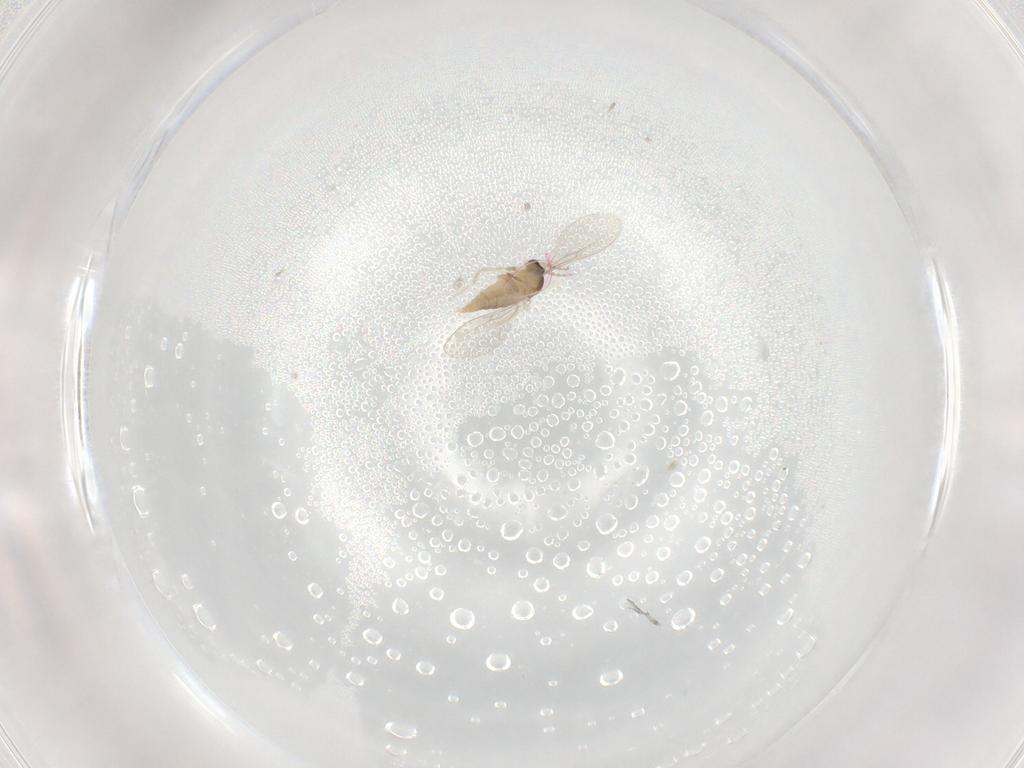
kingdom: Animalia
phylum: Arthropoda
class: Insecta
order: Diptera
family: Cecidomyiidae
